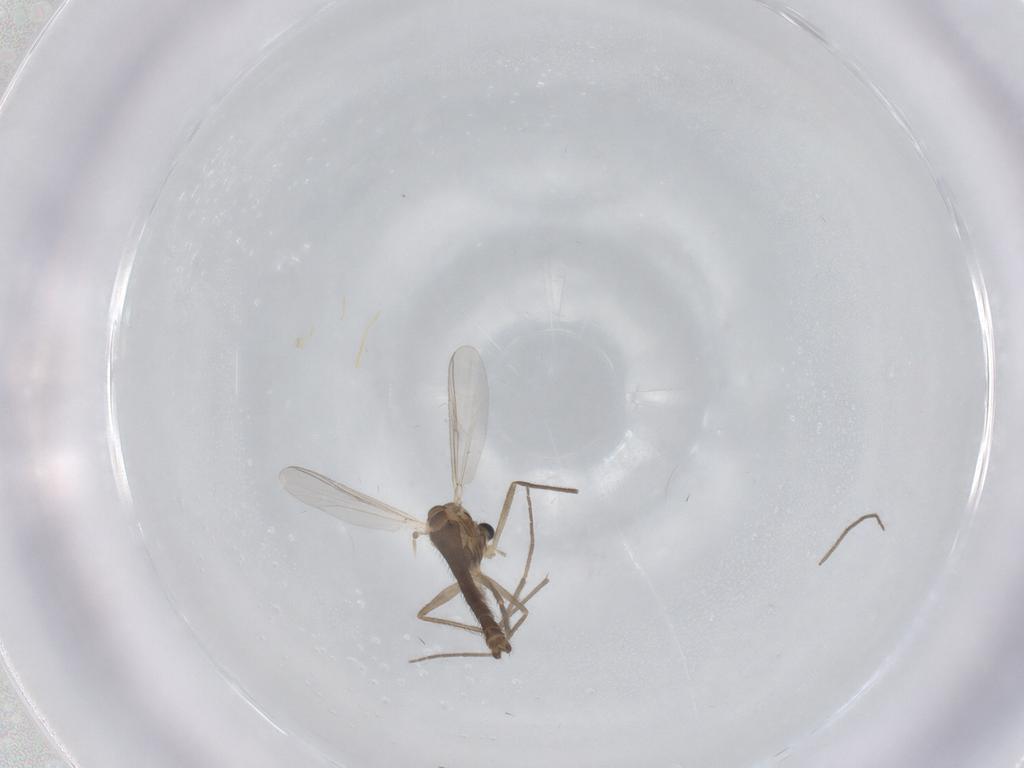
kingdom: Animalia
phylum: Arthropoda
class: Insecta
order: Diptera
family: Chironomidae
